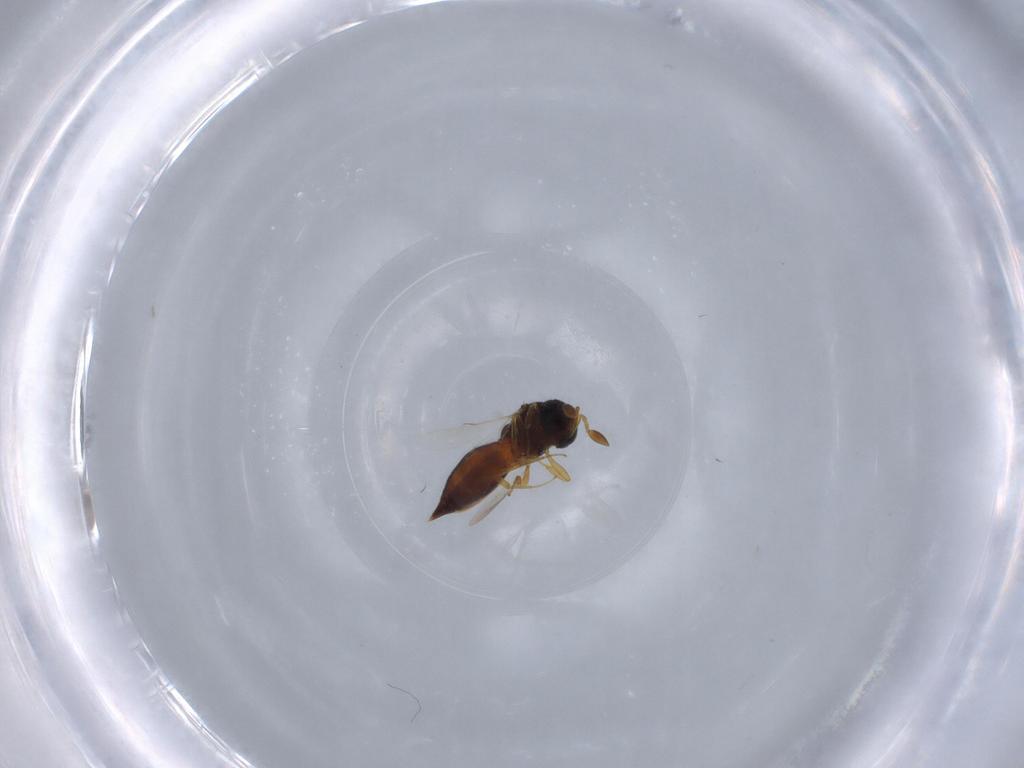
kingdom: Animalia
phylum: Arthropoda
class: Insecta
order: Hymenoptera
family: Scelionidae
